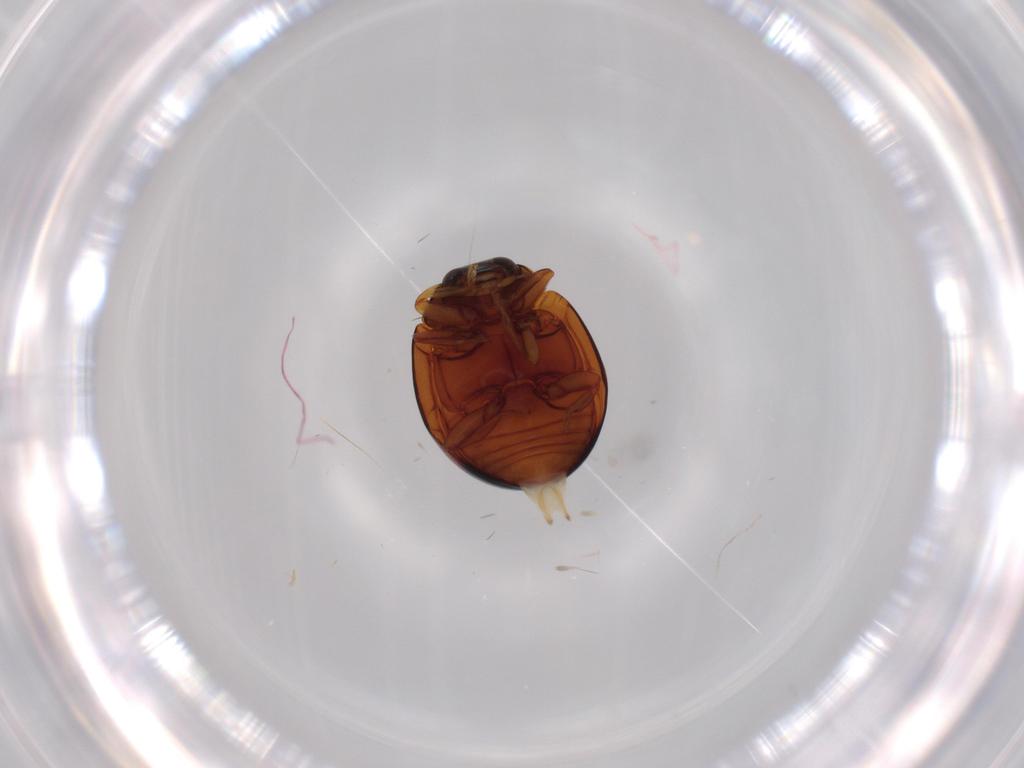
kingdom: Animalia
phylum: Arthropoda
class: Insecta
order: Coleoptera
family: Coccinellidae
